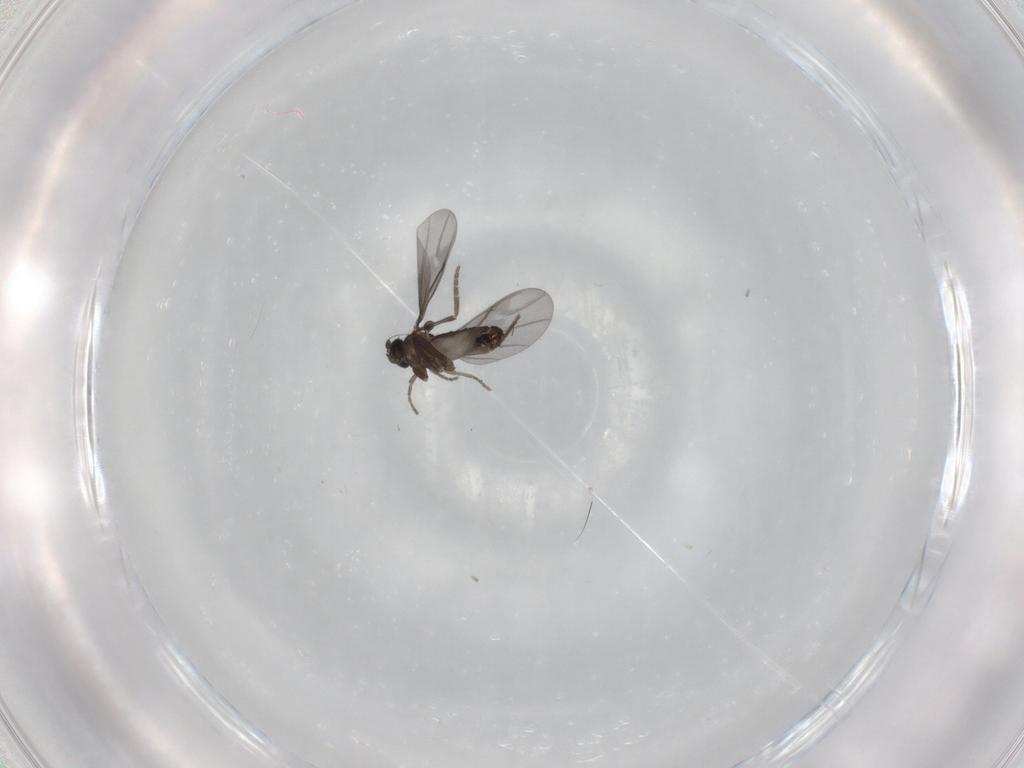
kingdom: Animalia
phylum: Arthropoda
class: Insecta
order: Diptera
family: Phoridae
